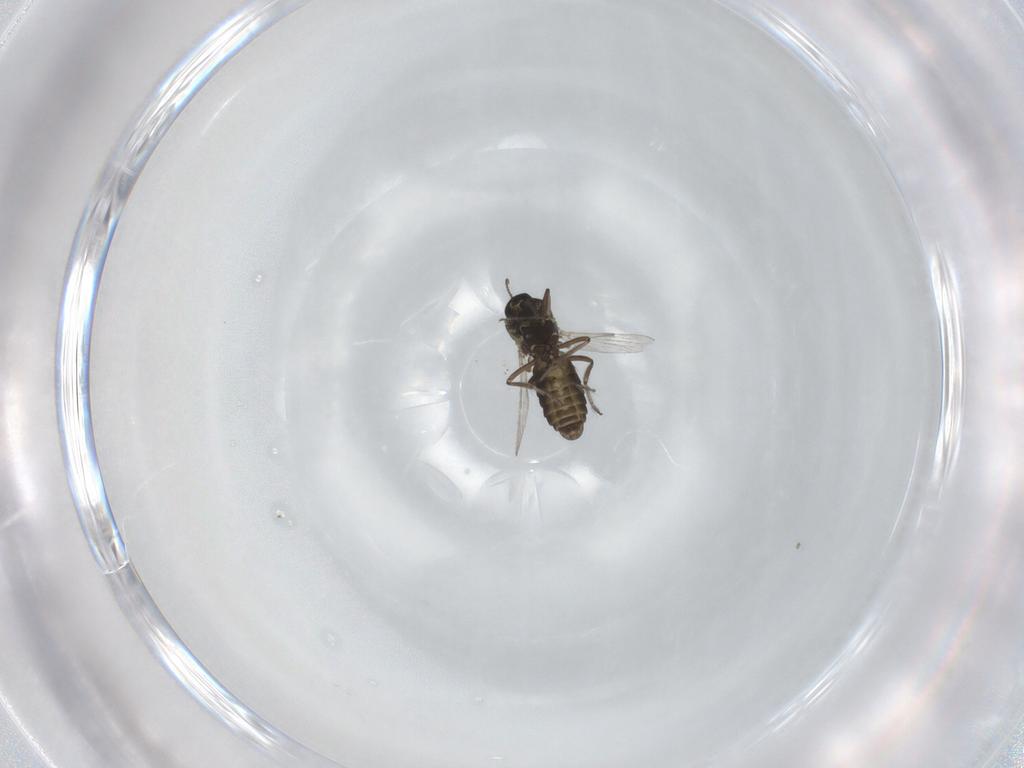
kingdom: Animalia
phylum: Arthropoda
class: Insecta
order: Diptera
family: Ceratopogonidae
